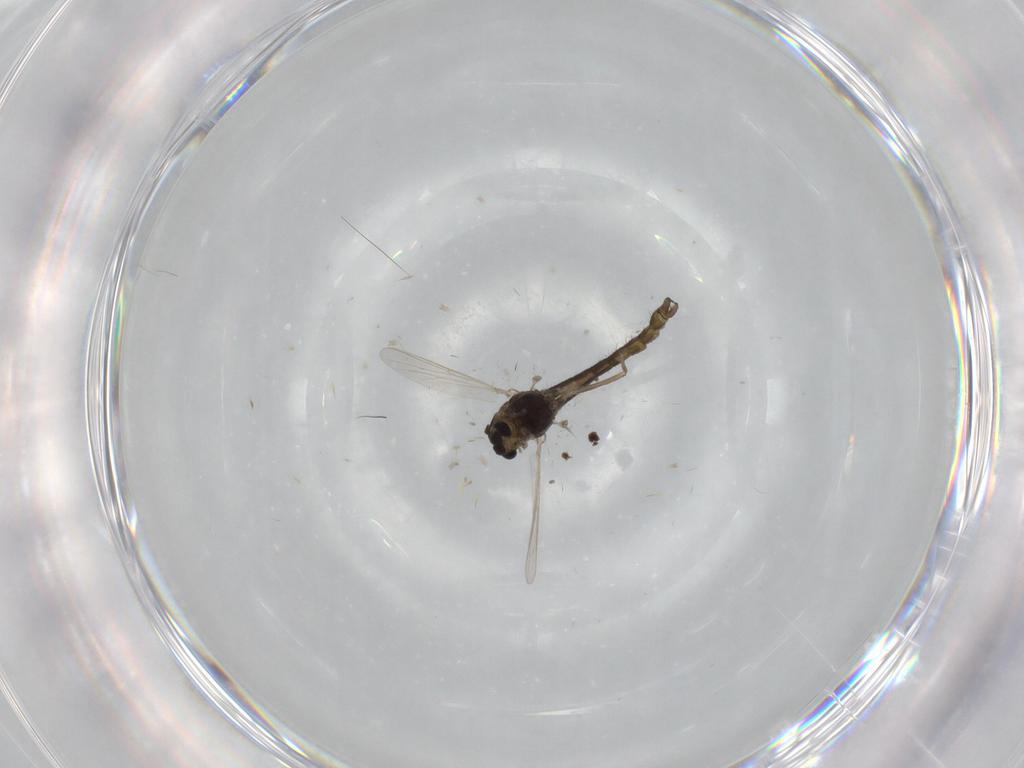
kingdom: Animalia
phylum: Arthropoda
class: Insecta
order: Diptera
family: Chironomidae
